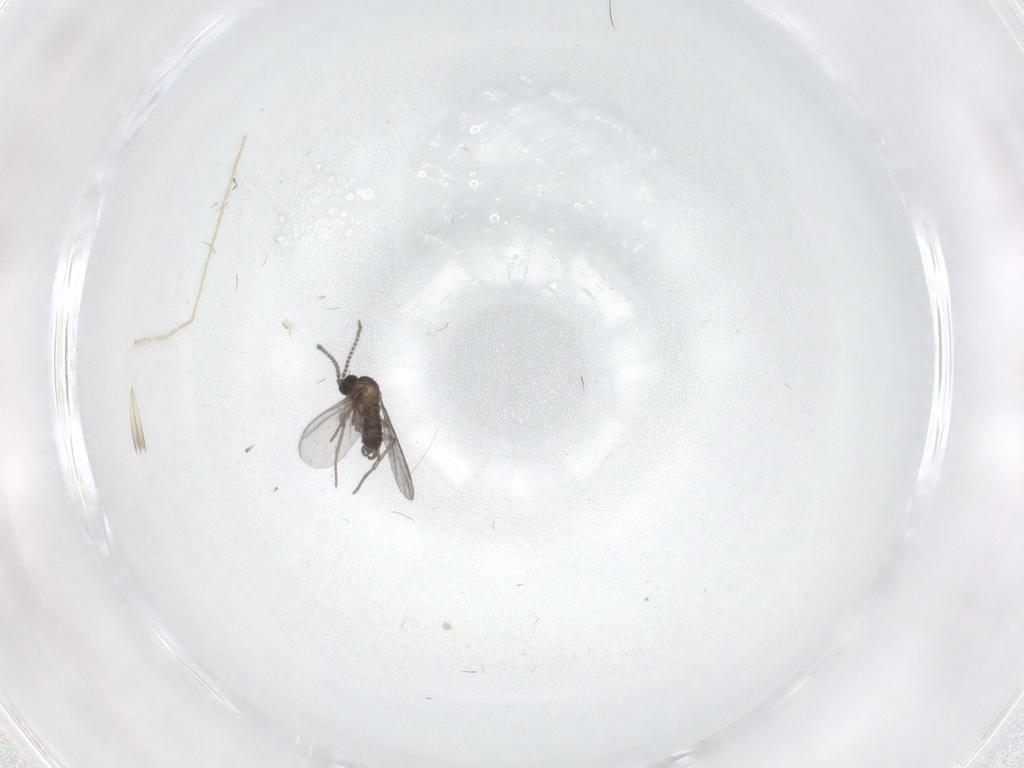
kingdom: Animalia
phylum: Arthropoda
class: Insecta
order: Diptera
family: Sciaridae
